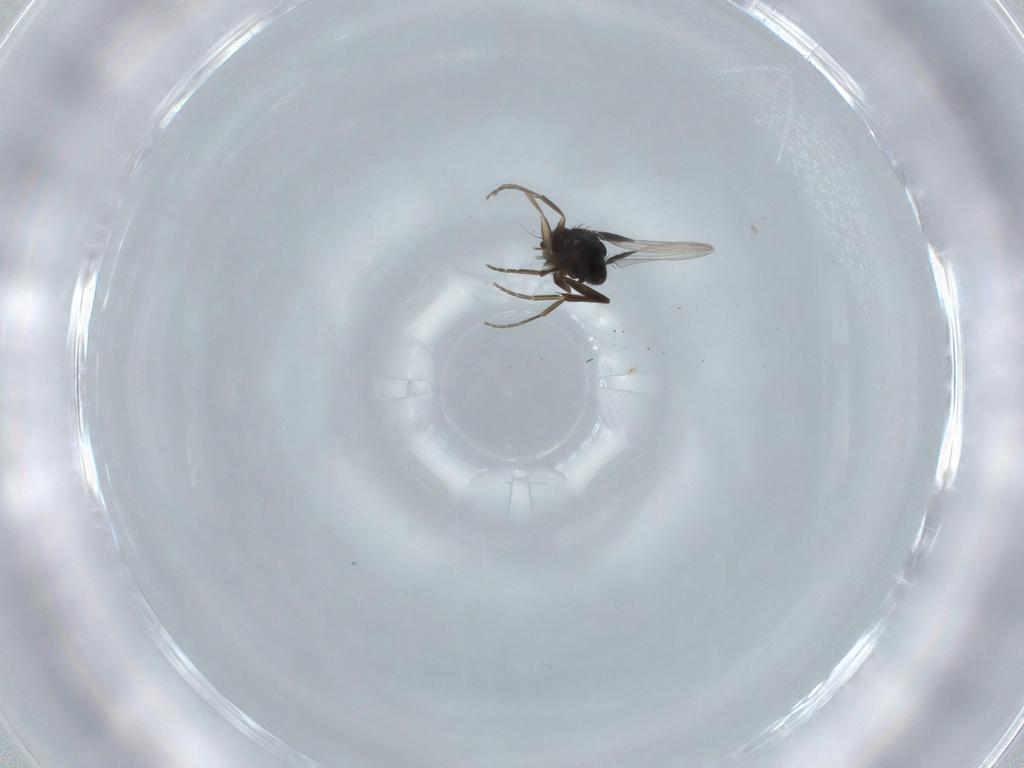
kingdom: Animalia
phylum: Arthropoda
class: Insecta
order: Diptera
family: Phoridae
